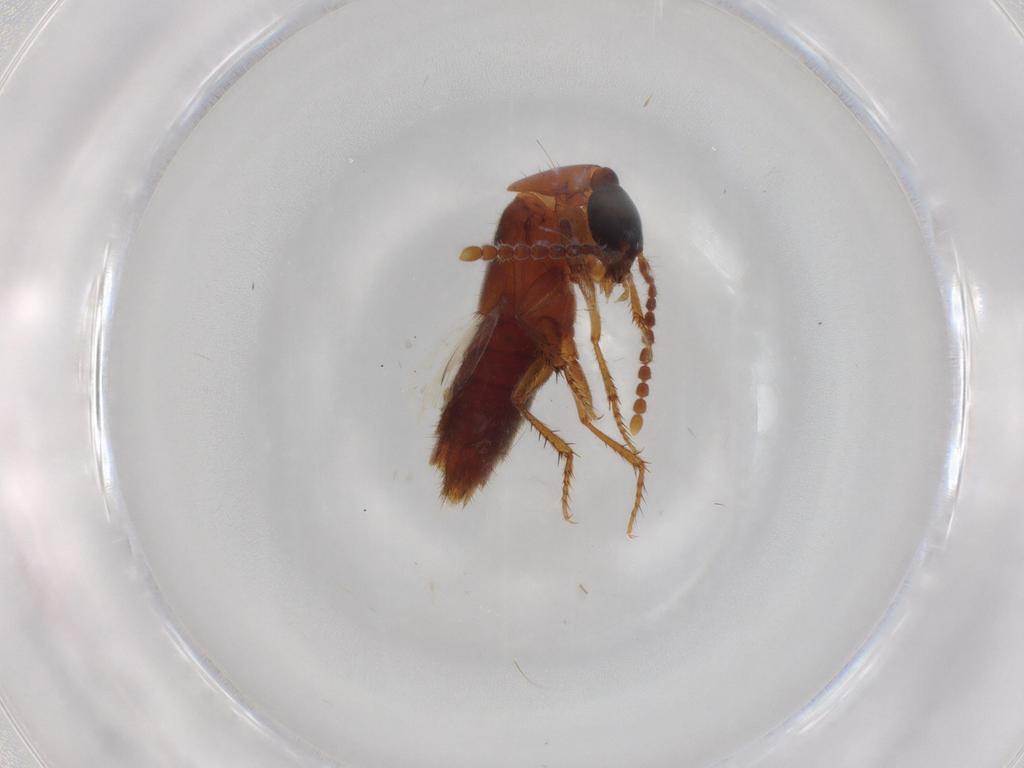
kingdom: Animalia
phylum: Arthropoda
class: Insecta
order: Coleoptera
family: Staphylinidae
